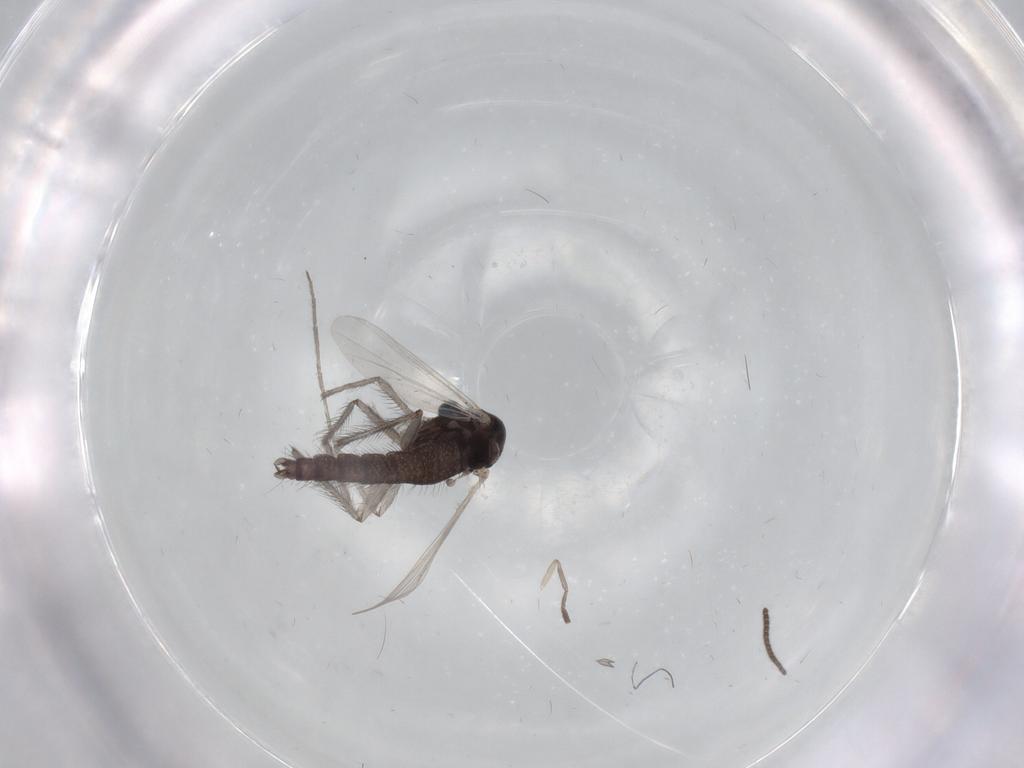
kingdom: Animalia
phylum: Arthropoda
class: Insecta
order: Diptera
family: Chironomidae
